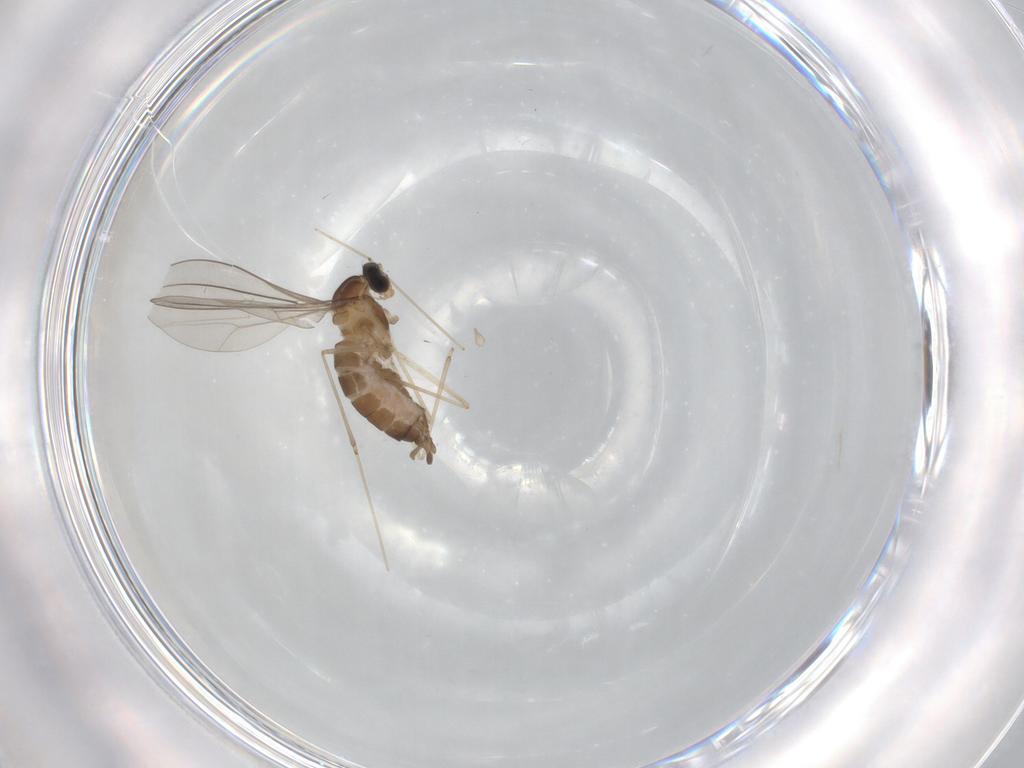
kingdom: Animalia
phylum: Arthropoda
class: Insecta
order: Diptera
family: Cecidomyiidae
